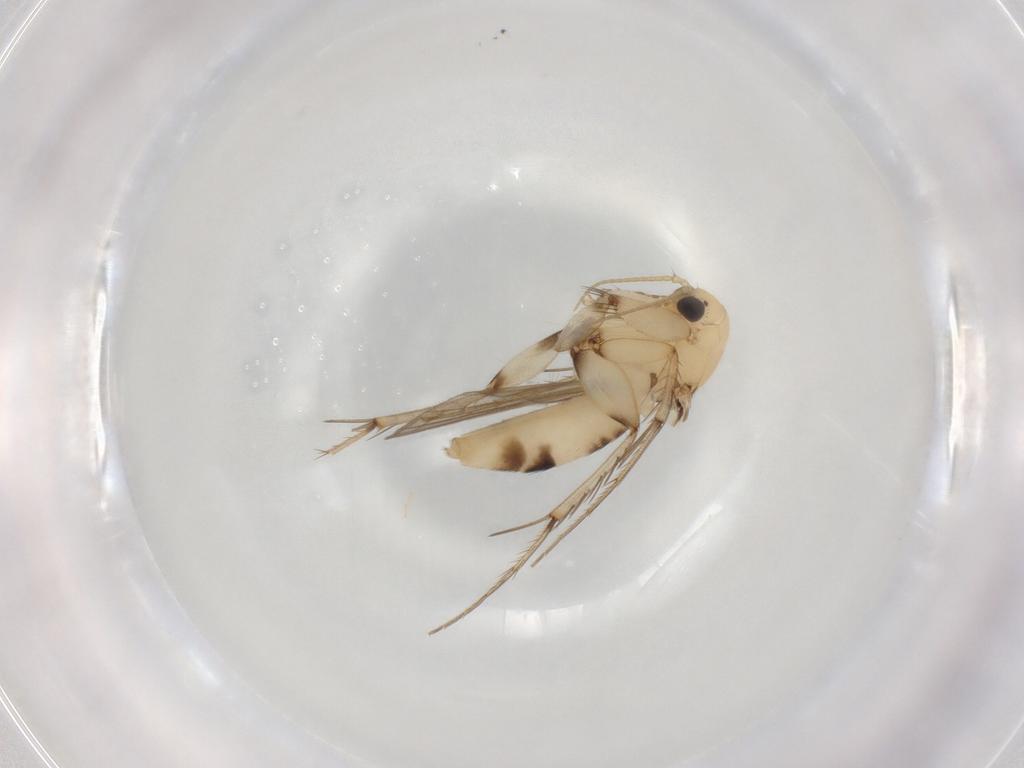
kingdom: Animalia
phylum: Arthropoda
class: Insecta
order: Diptera
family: Mycetophilidae
